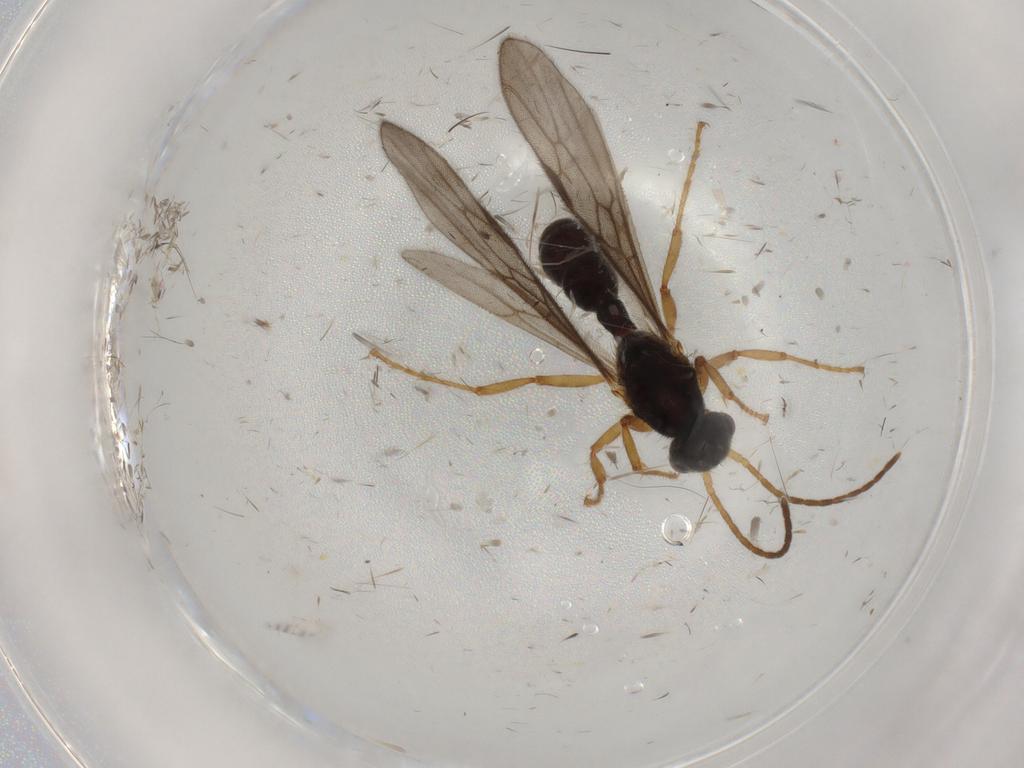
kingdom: Animalia
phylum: Arthropoda
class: Insecta
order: Hymenoptera
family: Formicidae
